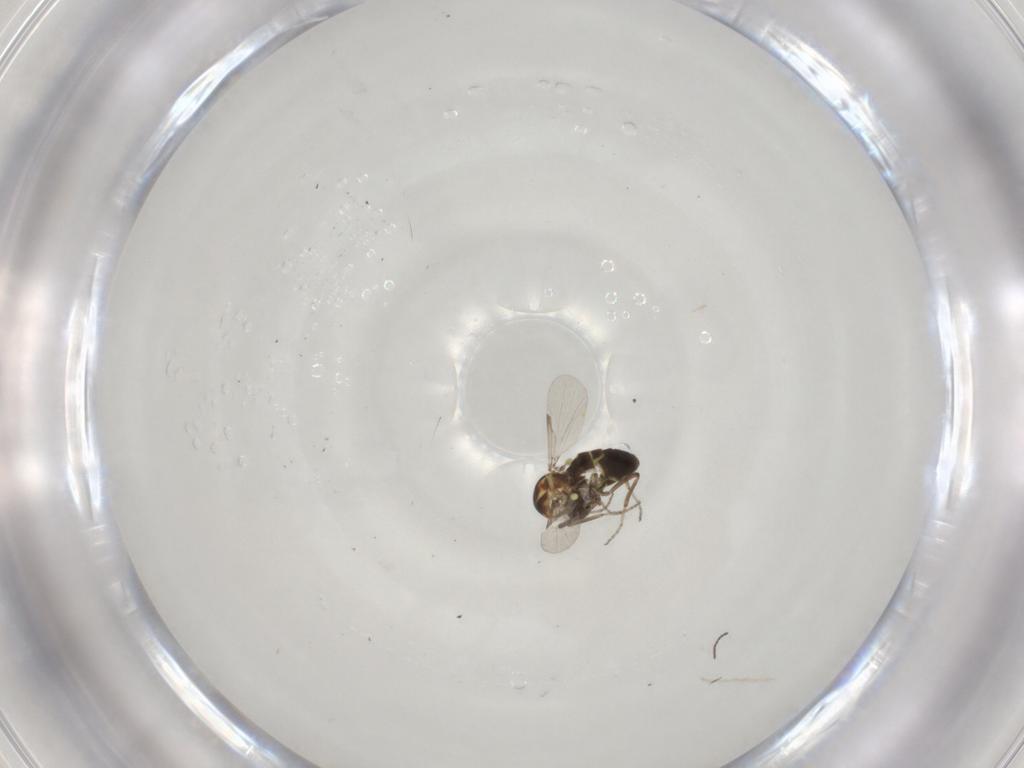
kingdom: Animalia
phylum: Arthropoda
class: Insecta
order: Diptera
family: Ceratopogonidae
